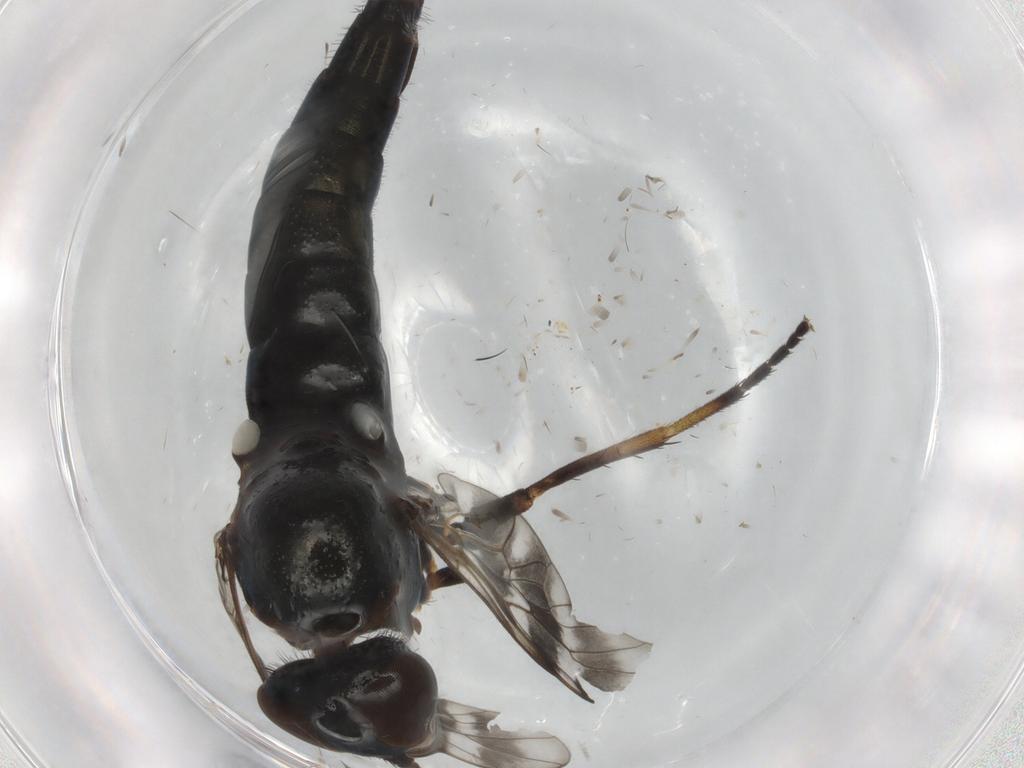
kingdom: Animalia
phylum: Arthropoda
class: Insecta
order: Diptera
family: Therevidae
